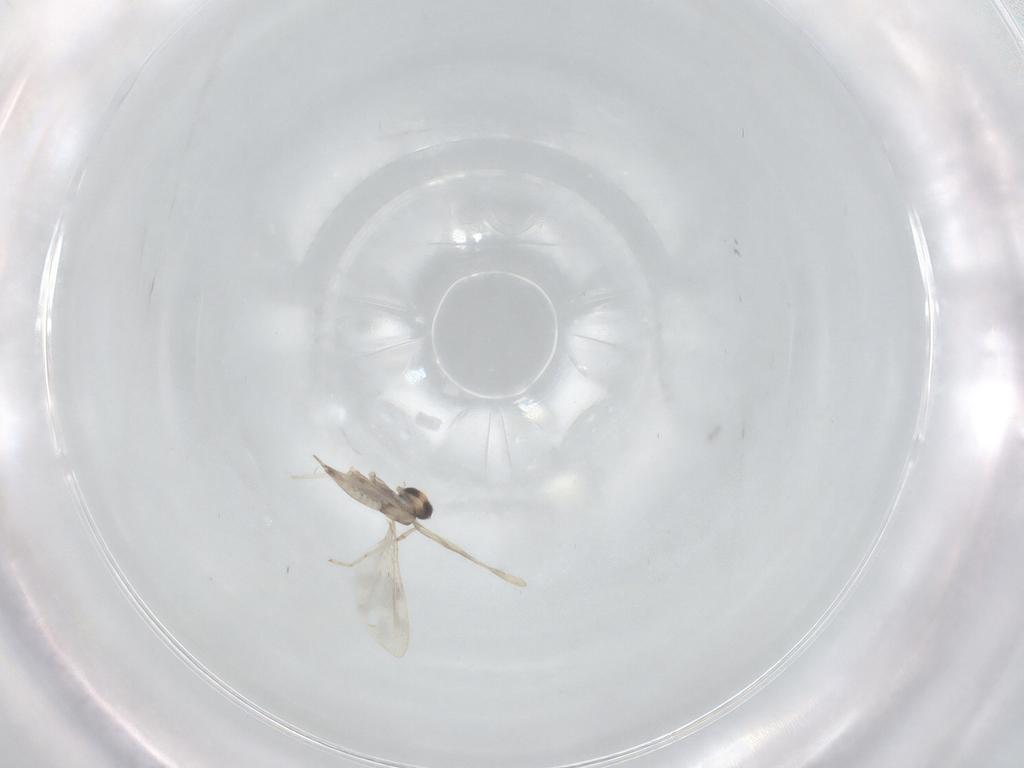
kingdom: Animalia
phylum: Arthropoda
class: Insecta
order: Diptera
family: Cecidomyiidae
